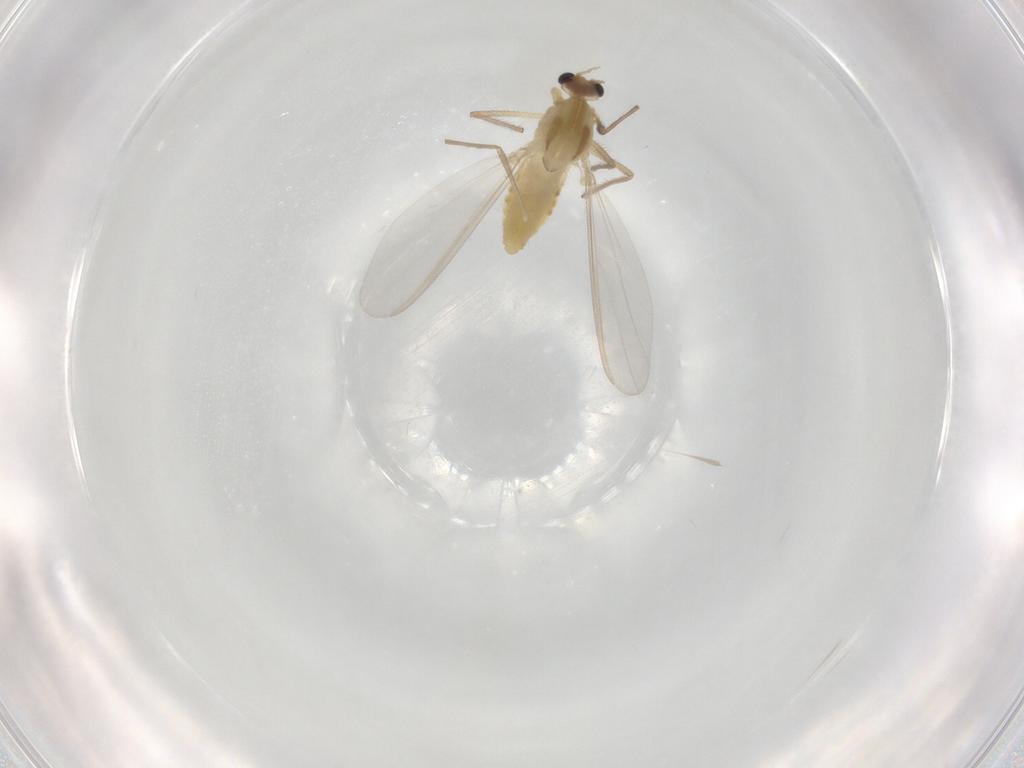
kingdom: Animalia
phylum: Arthropoda
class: Insecta
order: Diptera
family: Chironomidae
